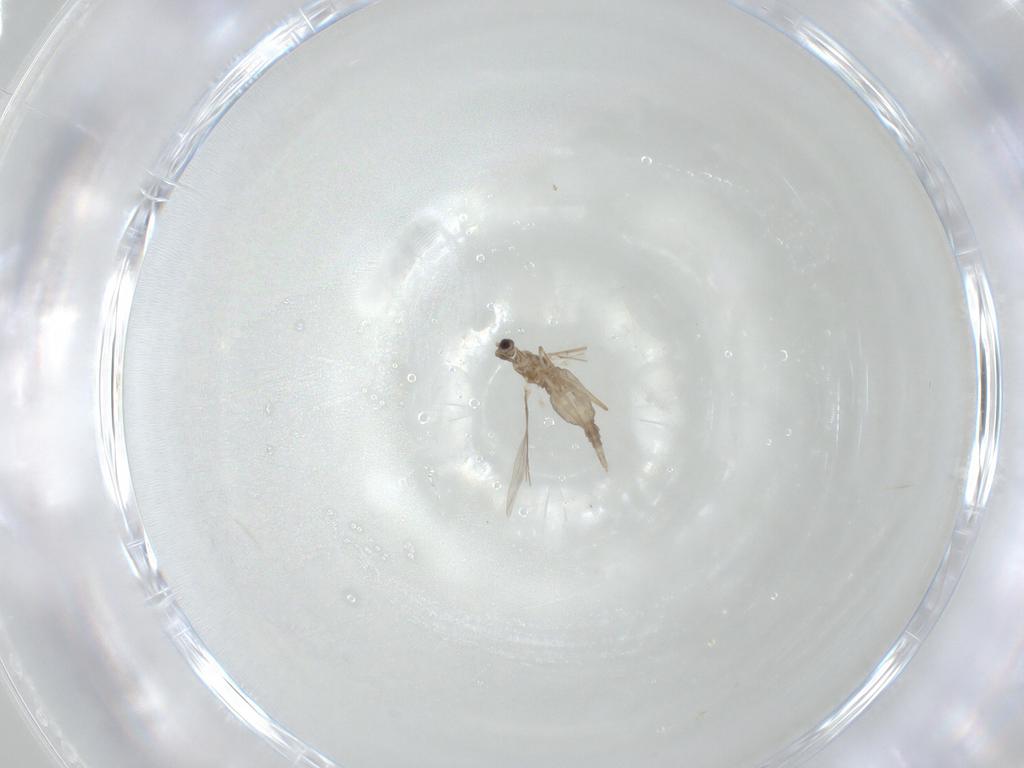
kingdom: Animalia
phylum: Arthropoda
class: Insecta
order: Diptera
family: Cecidomyiidae
